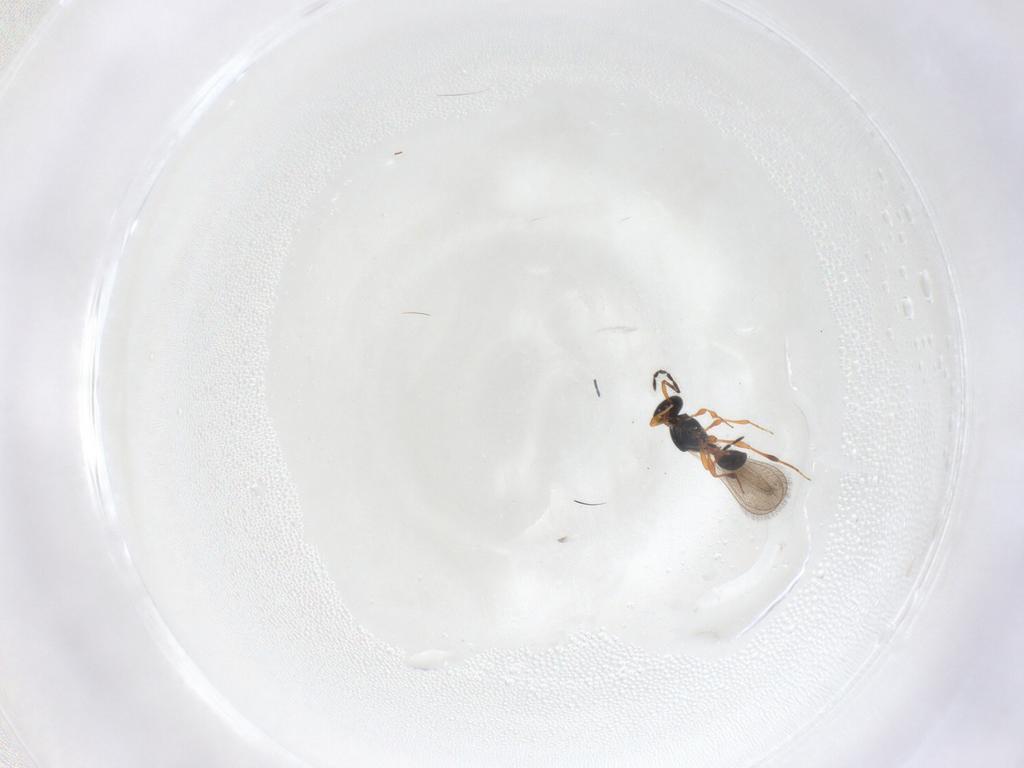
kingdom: Animalia
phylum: Arthropoda
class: Insecta
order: Hymenoptera
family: Platygastridae
